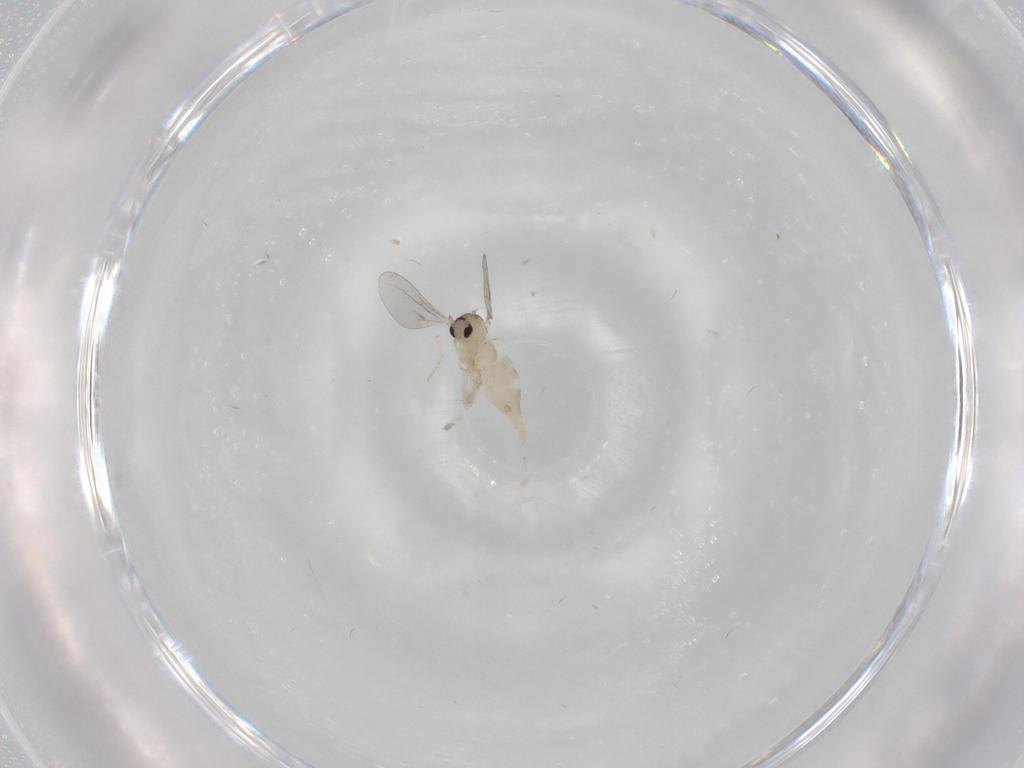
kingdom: Animalia
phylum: Arthropoda
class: Insecta
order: Diptera
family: Cecidomyiidae
